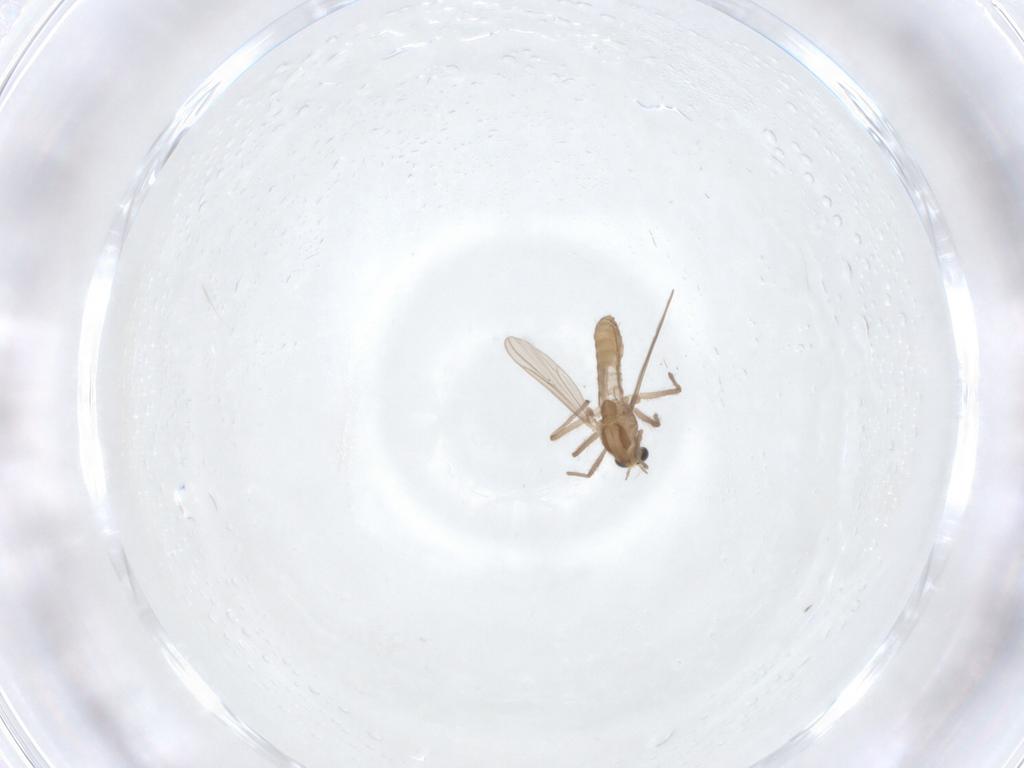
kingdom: Animalia
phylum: Arthropoda
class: Insecta
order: Diptera
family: Chironomidae
